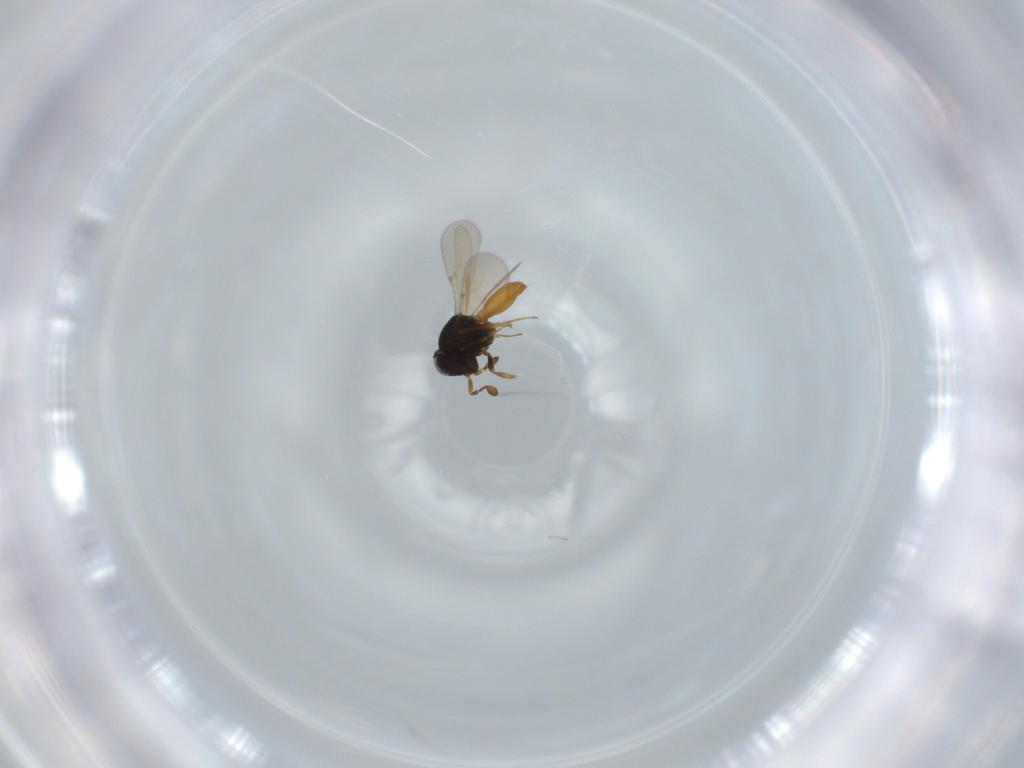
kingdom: Animalia
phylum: Arthropoda
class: Insecta
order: Hymenoptera
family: Scelionidae
